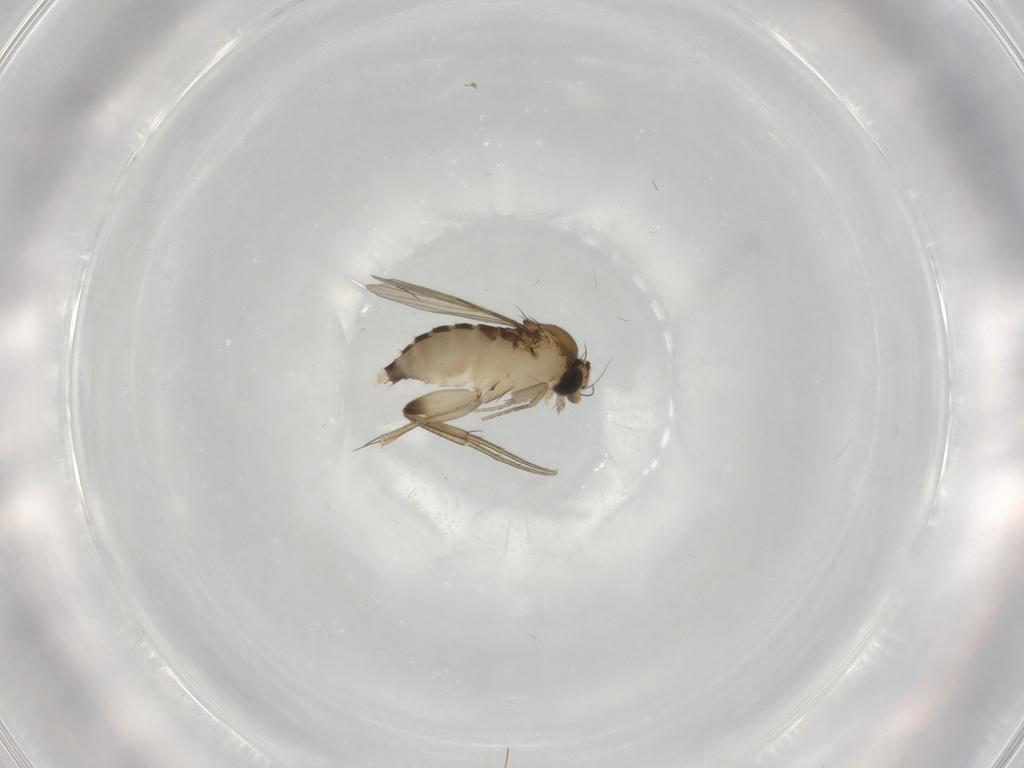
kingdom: Animalia
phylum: Arthropoda
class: Insecta
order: Diptera
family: Phoridae
